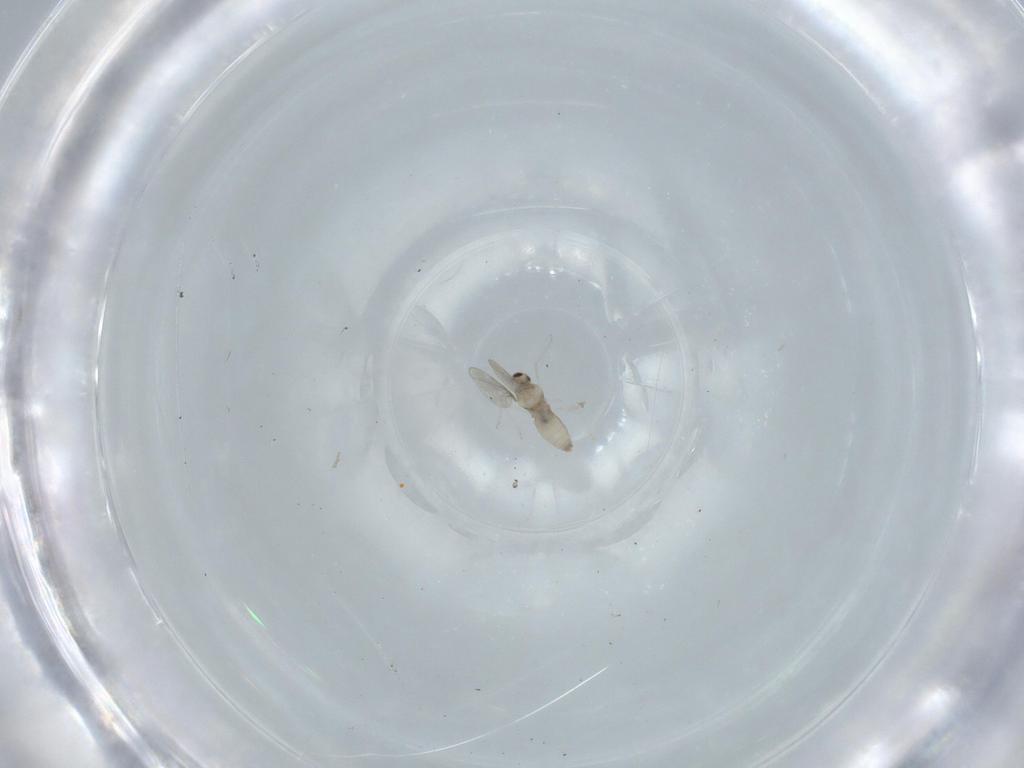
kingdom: Animalia
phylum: Arthropoda
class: Insecta
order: Diptera
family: Cecidomyiidae
